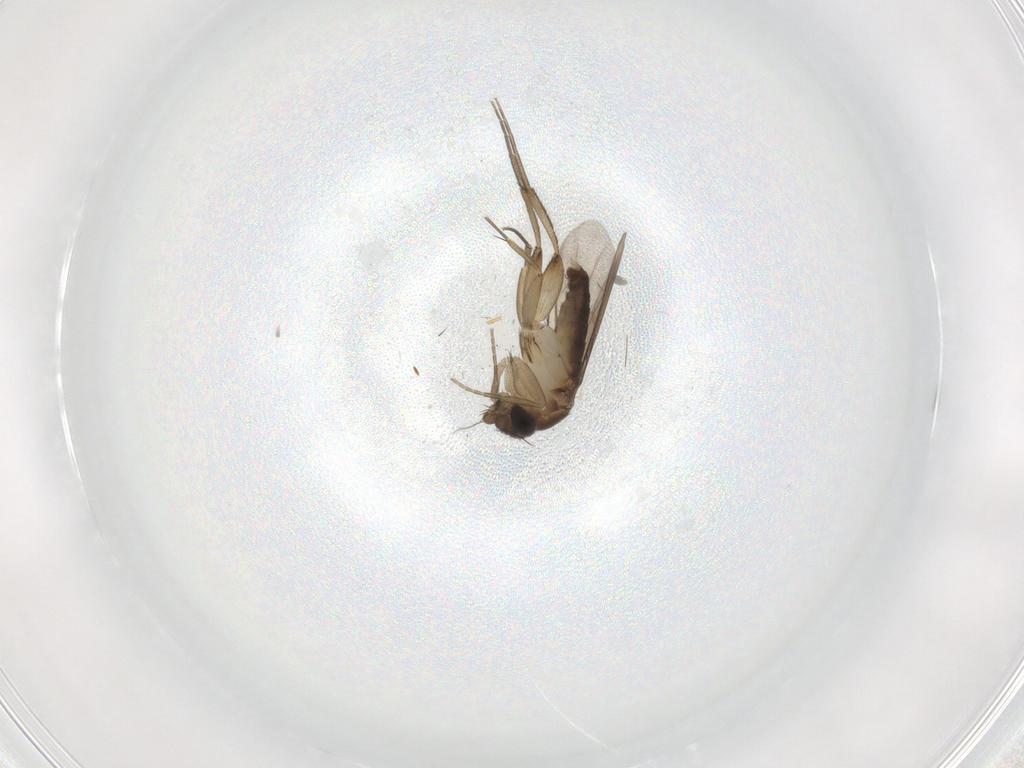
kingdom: Animalia
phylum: Arthropoda
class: Insecta
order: Diptera
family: Phoridae
